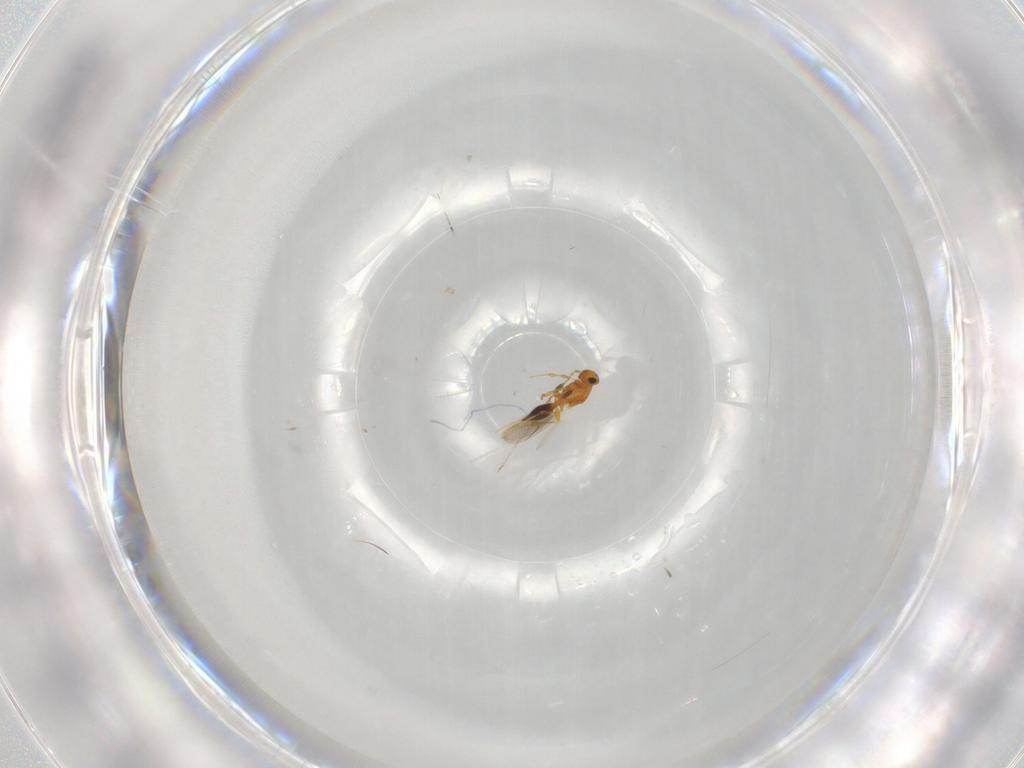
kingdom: Animalia
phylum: Arthropoda
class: Insecta
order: Hymenoptera
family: Platygastridae
